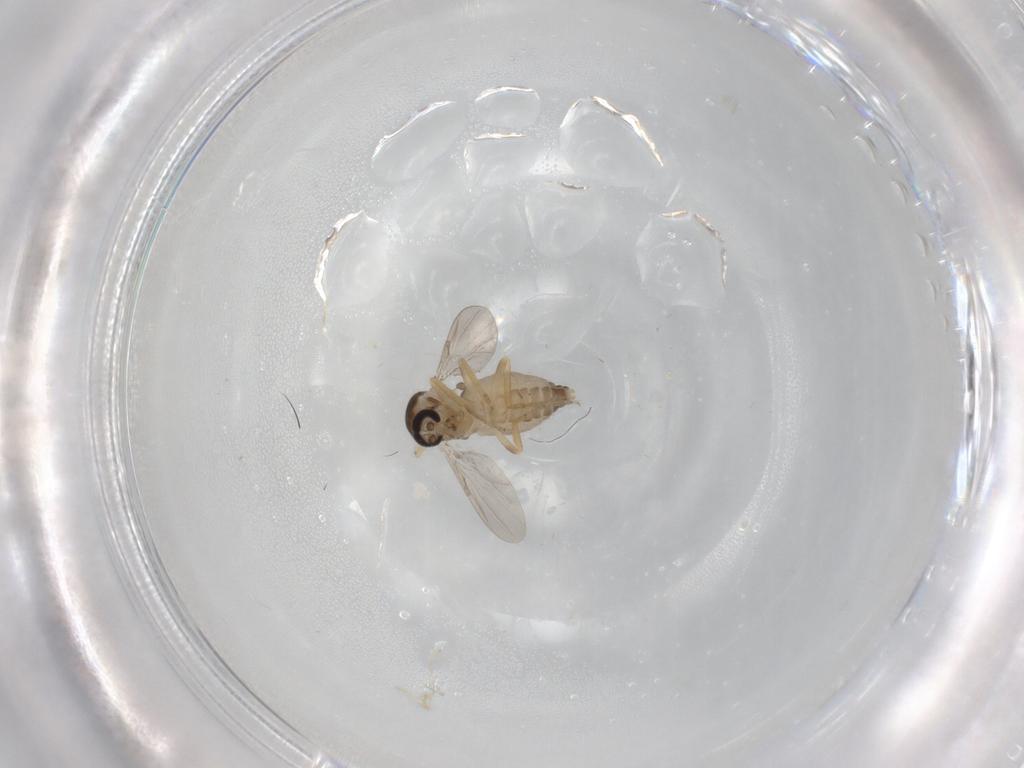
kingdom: Animalia
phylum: Arthropoda
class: Insecta
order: Diptera
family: Ceratopogonidae
